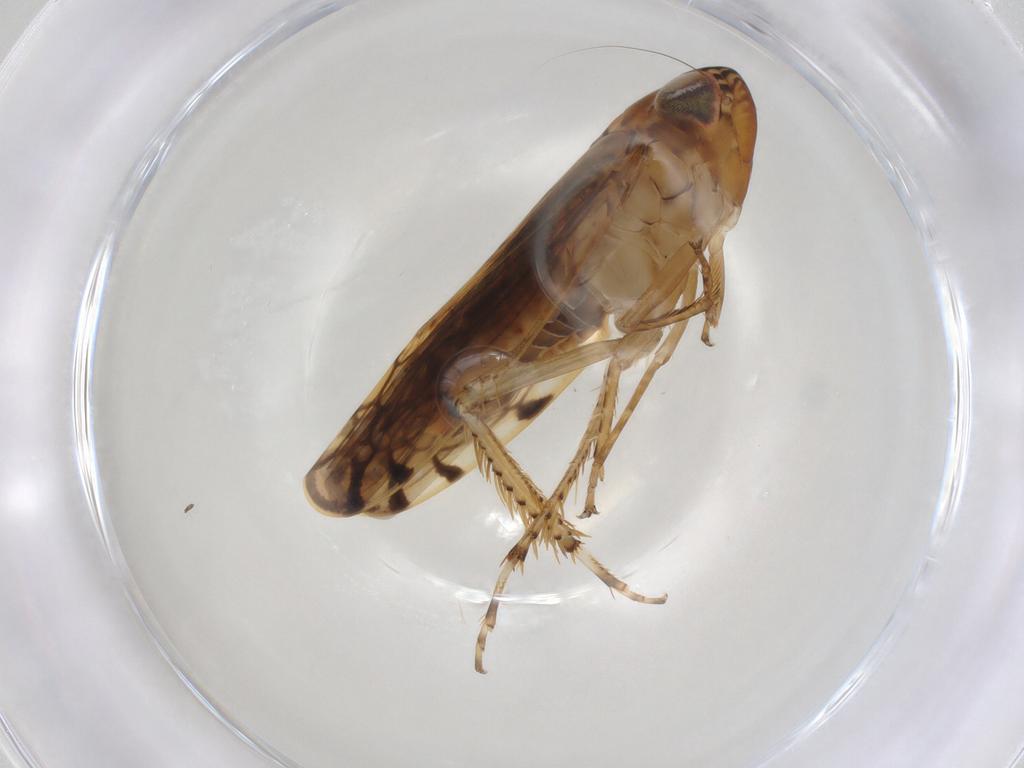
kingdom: Animalia
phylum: Arthropoda
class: Insecta
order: Hemiptera
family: Cicadellidae
